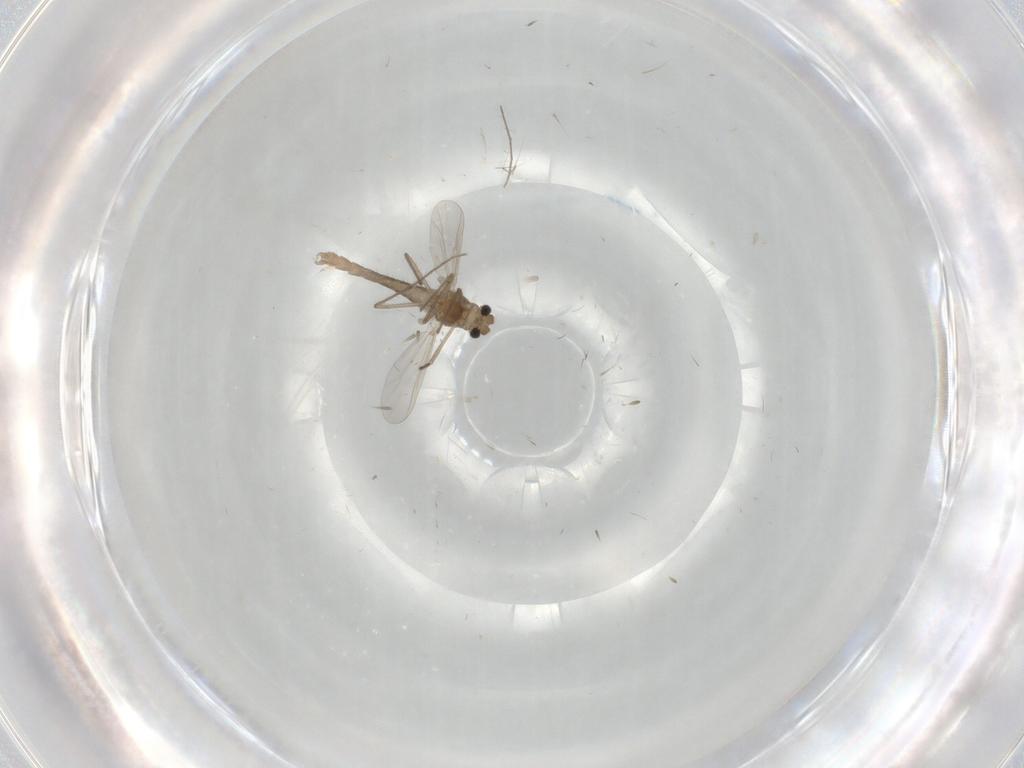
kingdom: Animalia
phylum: Arthropoda
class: Insecta
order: Diptera
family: Chironomidae
